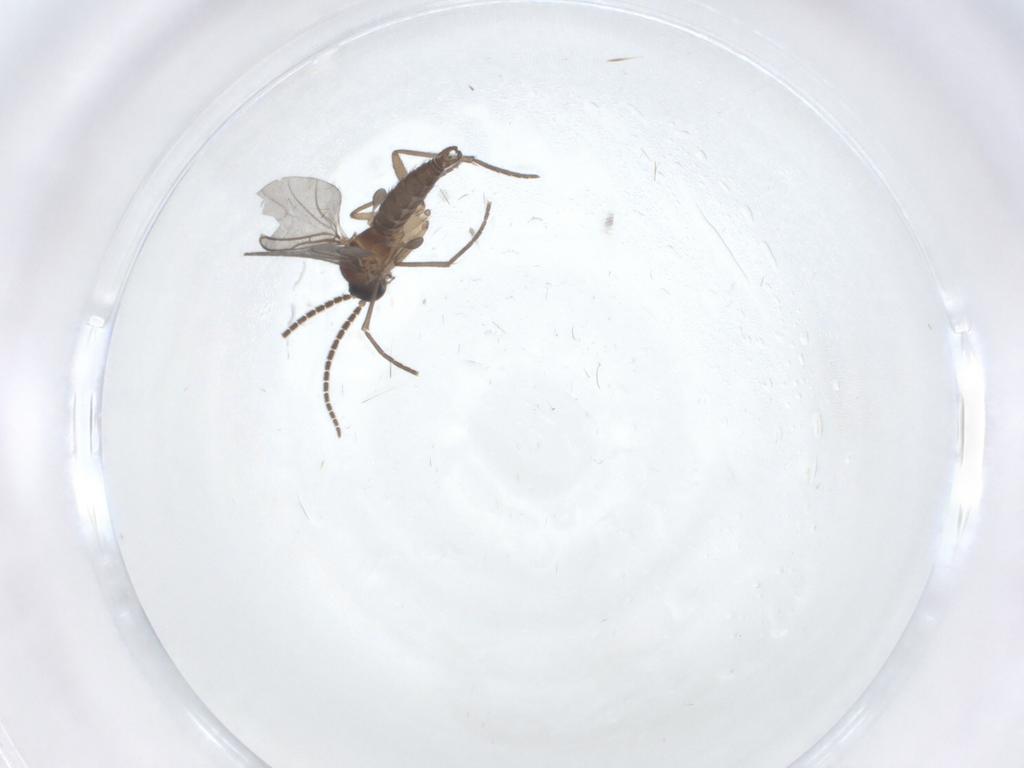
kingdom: Animalia
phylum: Arthropoda
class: Insecta
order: Diptera
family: Sciaridae
